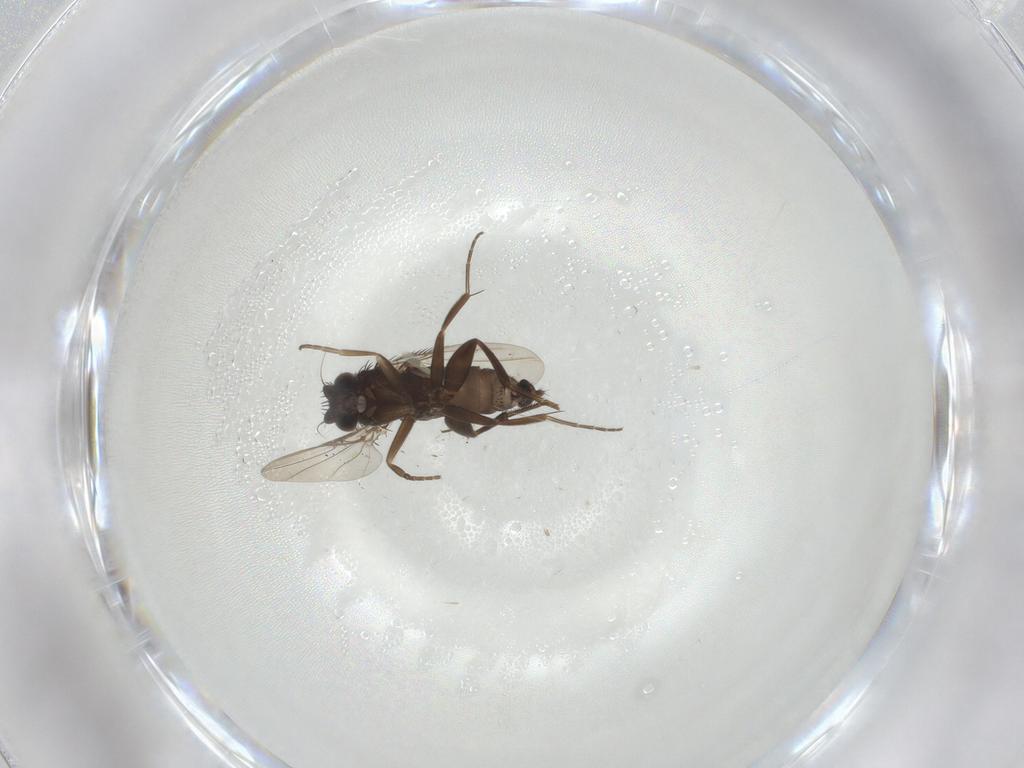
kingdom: Animalia
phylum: Arthropoda
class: Insecta
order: Diptera
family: Phoridae
